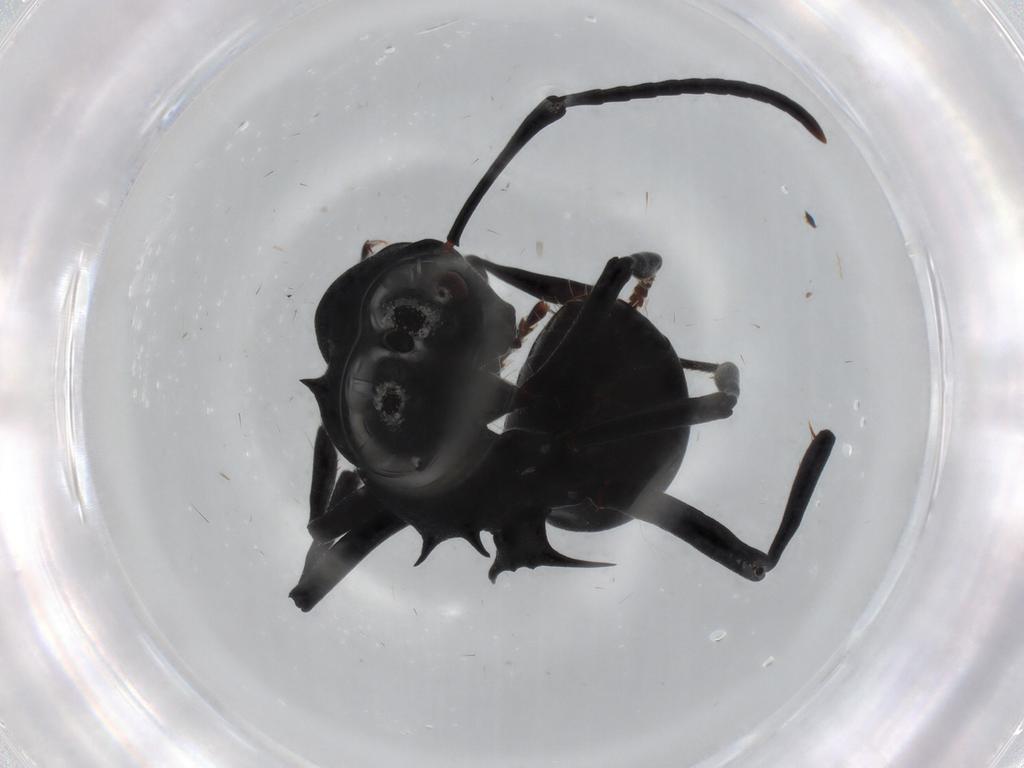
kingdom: Animalia
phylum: Arthropoda
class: Insecta
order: Hymenoptera
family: Formicidae
